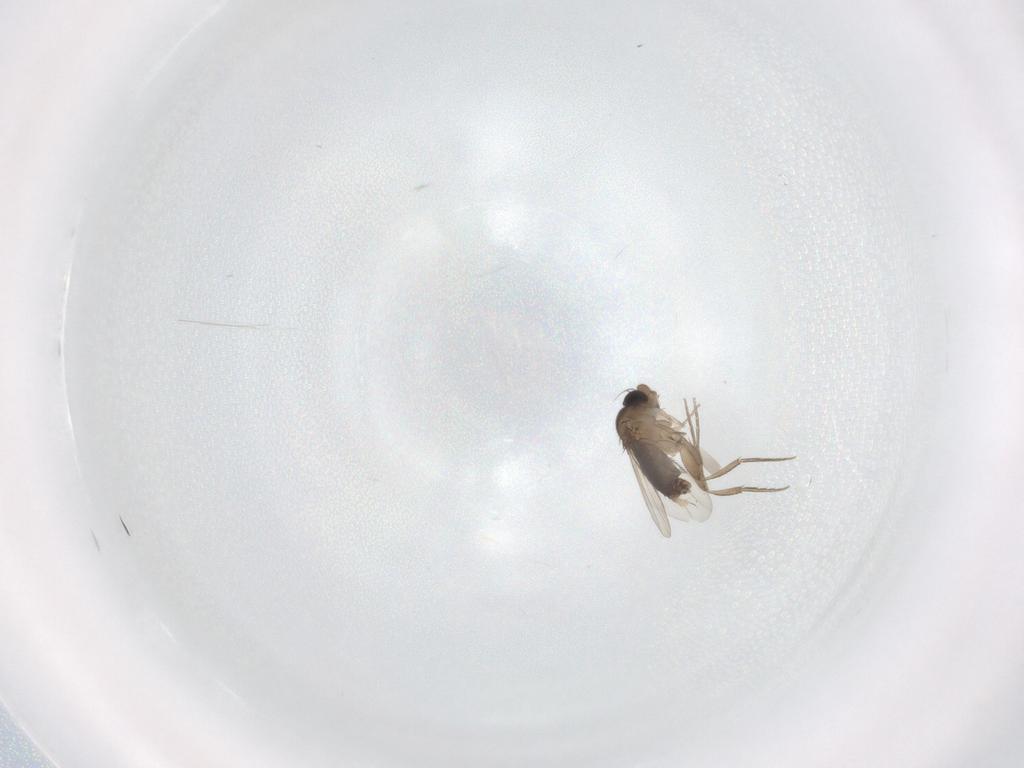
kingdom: Animalia
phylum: Arthropoda
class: Insecta
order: Diptera
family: Phoridae
